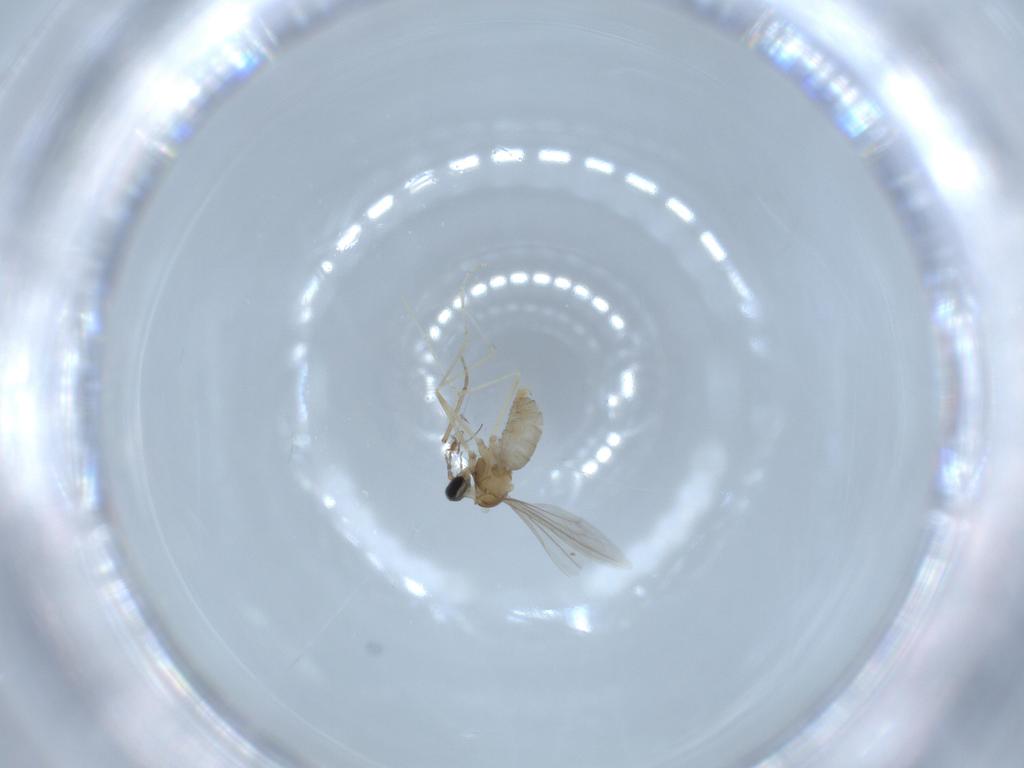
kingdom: Animalia
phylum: Arthropoda
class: Insecta
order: Diptera
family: Cecidomyiidae
